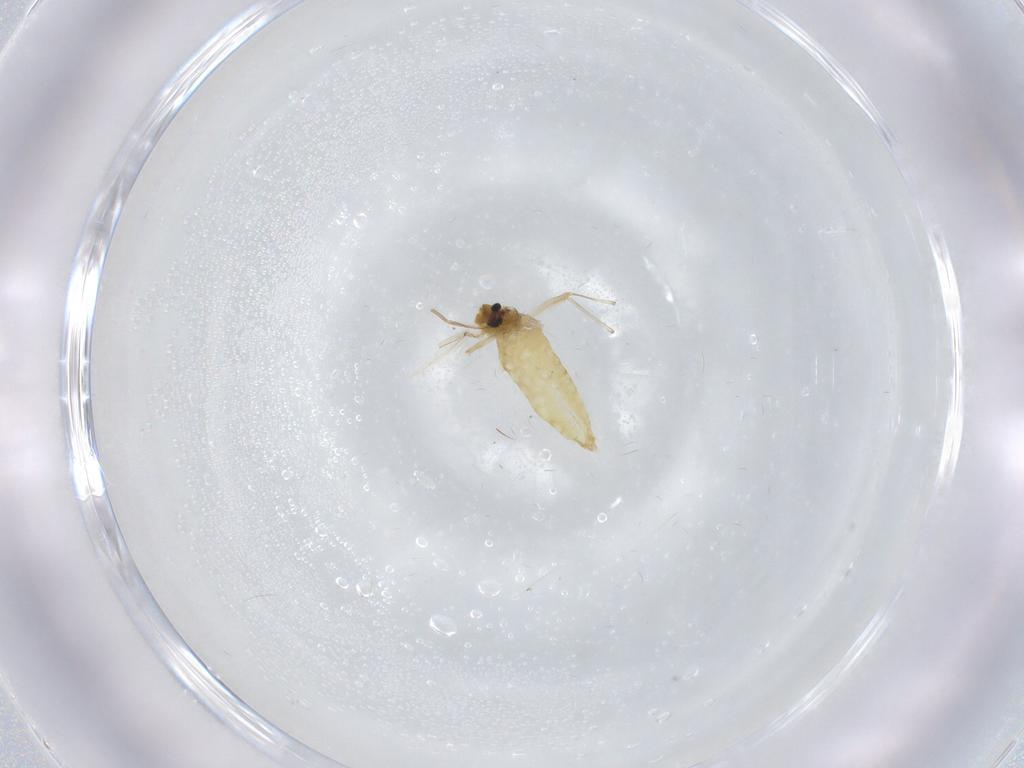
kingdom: Animalia
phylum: Arthropoda
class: Insecta
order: Diptera
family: Chironomidae
